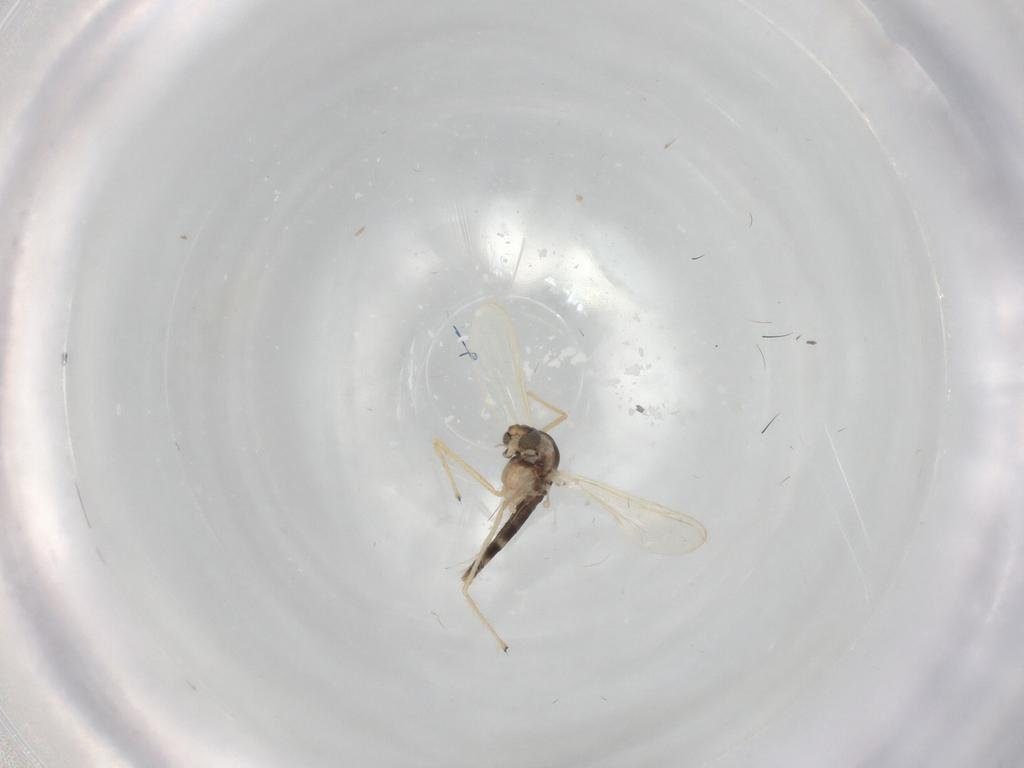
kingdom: Animalia
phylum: Arthropoda
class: Insecta
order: Diptera
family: Chironomidae
